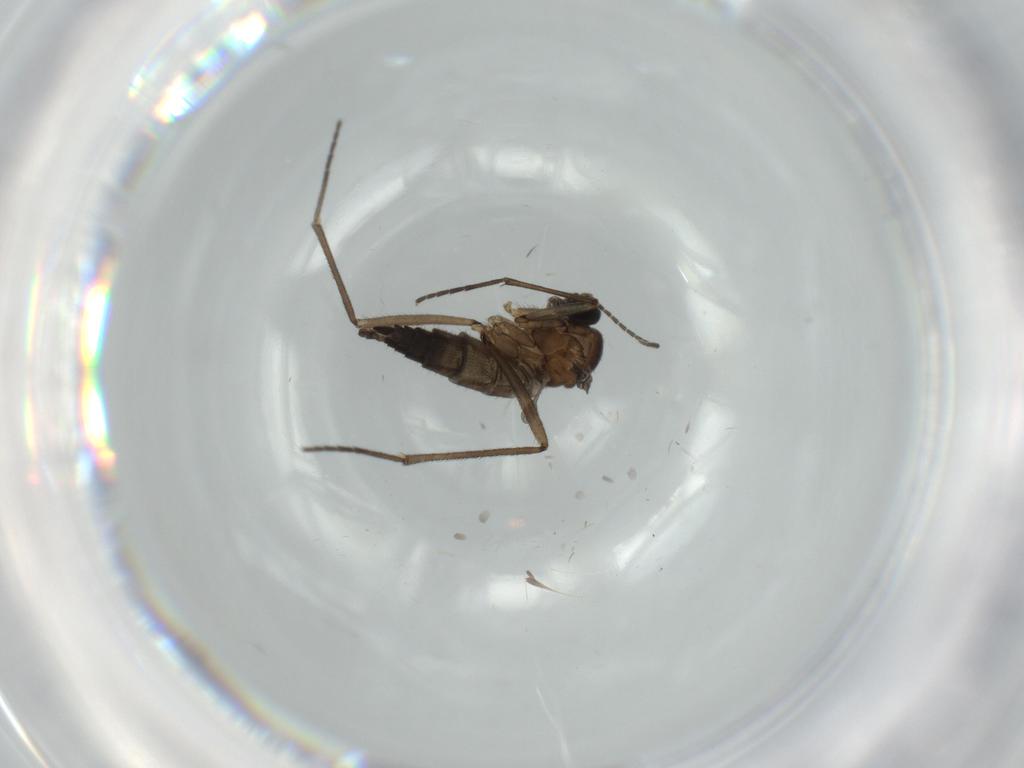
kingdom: Animalia
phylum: Arthropoda
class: Insecta
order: Diptera
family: Sciaridae
